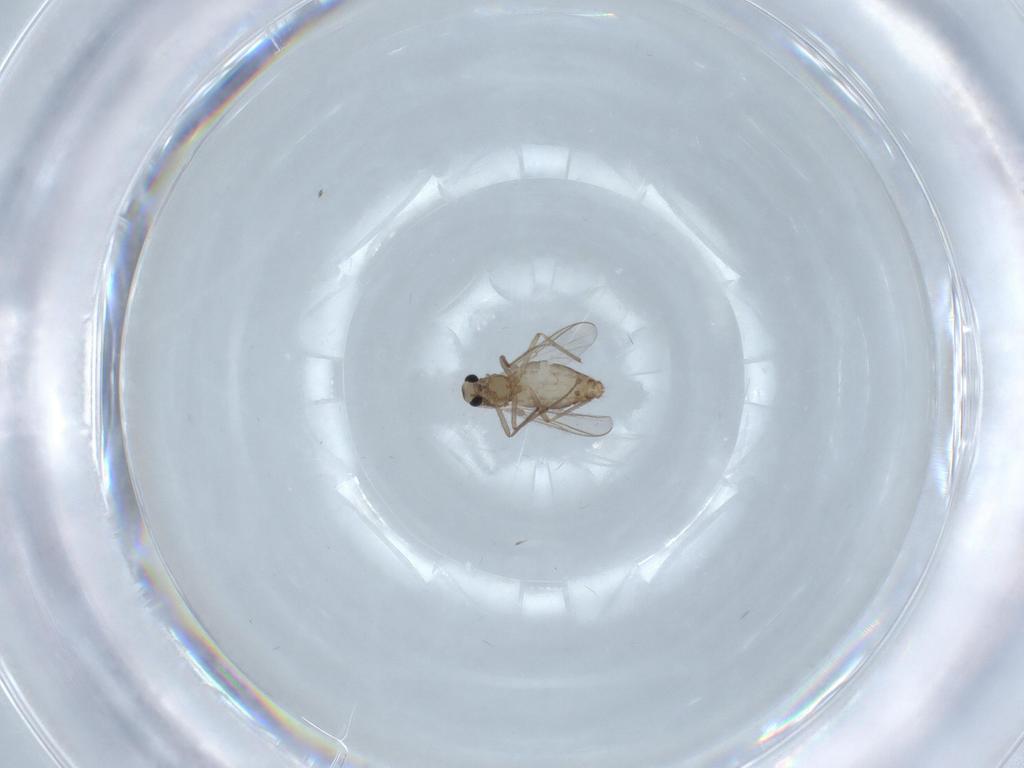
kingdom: Animalia
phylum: Arthropoda
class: Insecta
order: Diptera
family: Chironomidae
